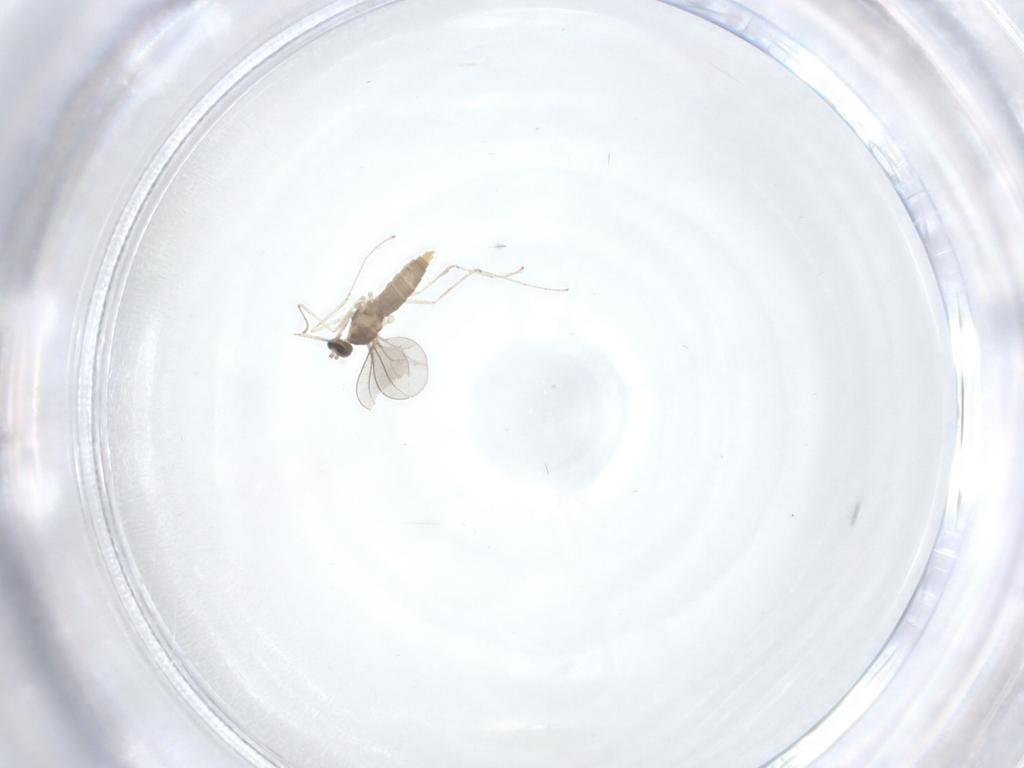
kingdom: Animalia
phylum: Arthropoda
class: Insecta
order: Diptera
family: Cecidomyiidae
